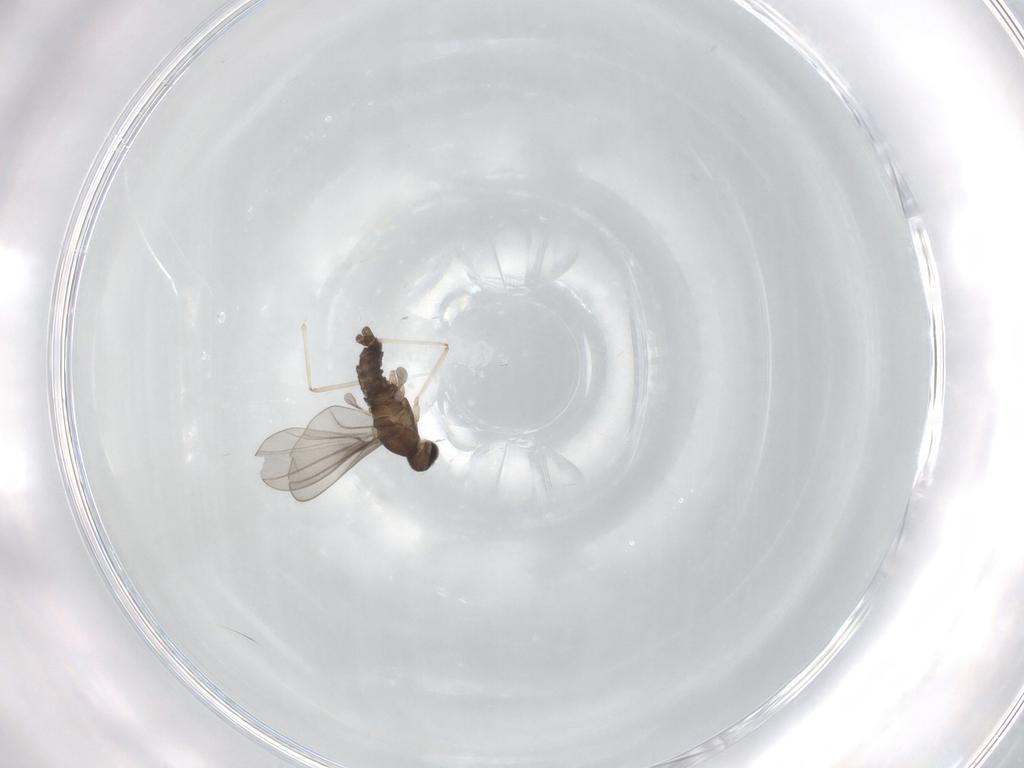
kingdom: Animalia
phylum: Arthropoda
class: Insecta
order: Diptera
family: Cecidomyiidae
